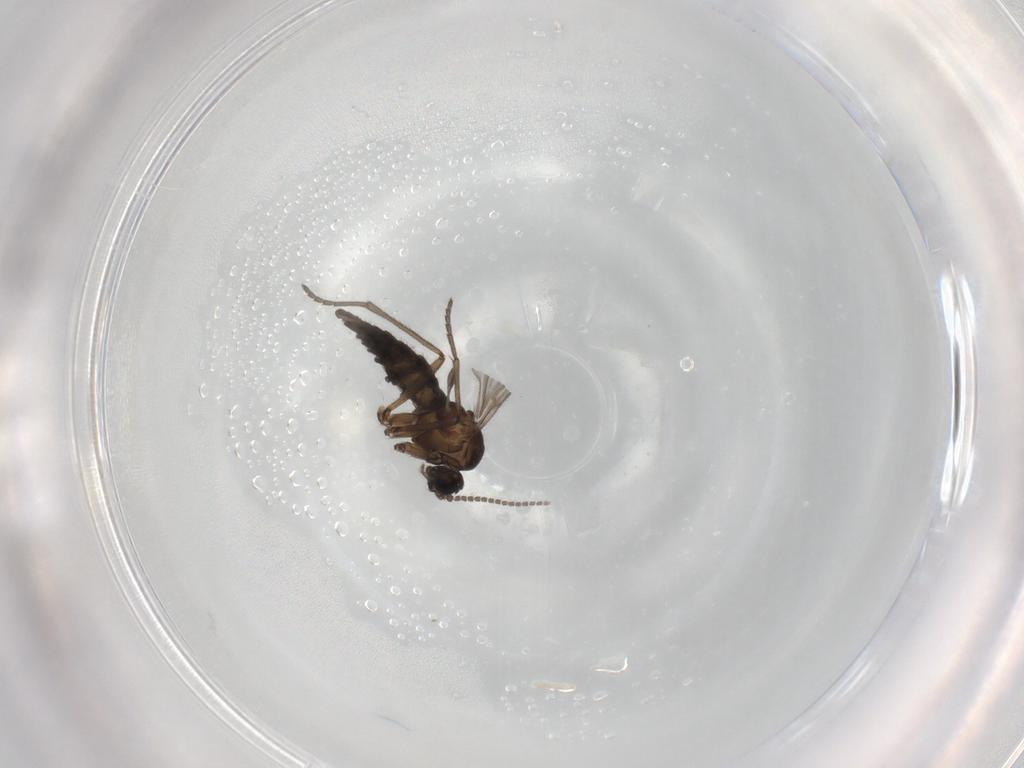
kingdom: Animalia
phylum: Arthropoda
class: Insecta
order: Diptera
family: Sciaridae
